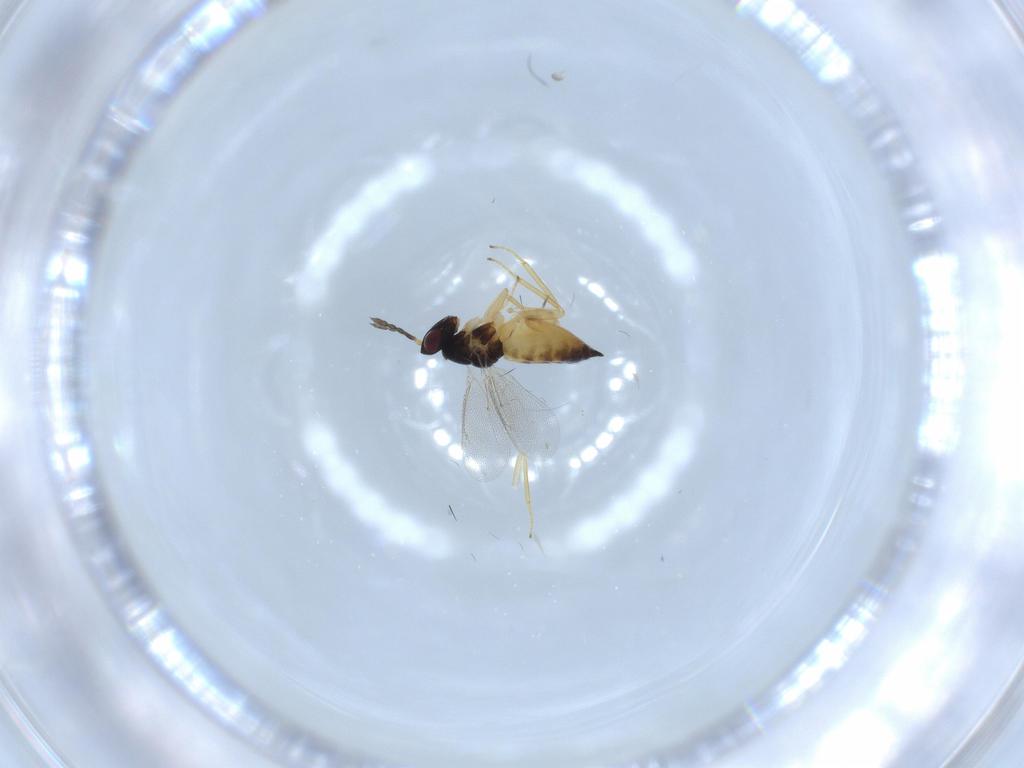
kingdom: Animalia
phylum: Arthropoda
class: Insecta
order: Hymenoptera
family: Eulophidae
